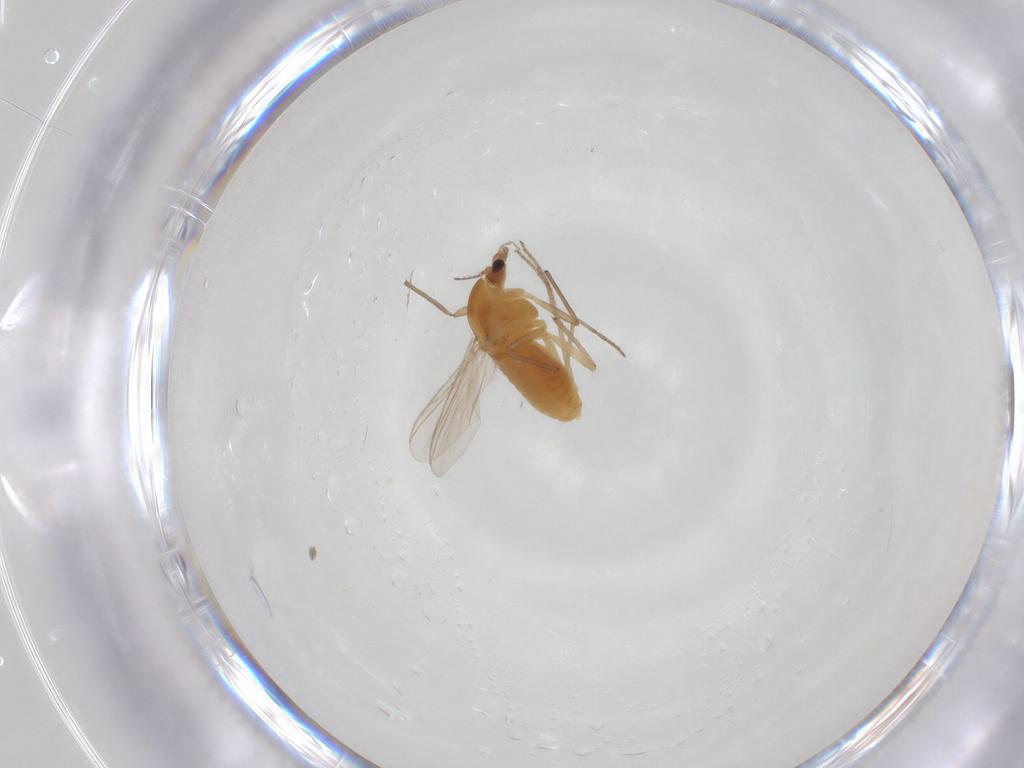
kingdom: Animalia
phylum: Arthropoda
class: Insecta
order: Diptera
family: Chironomidae
